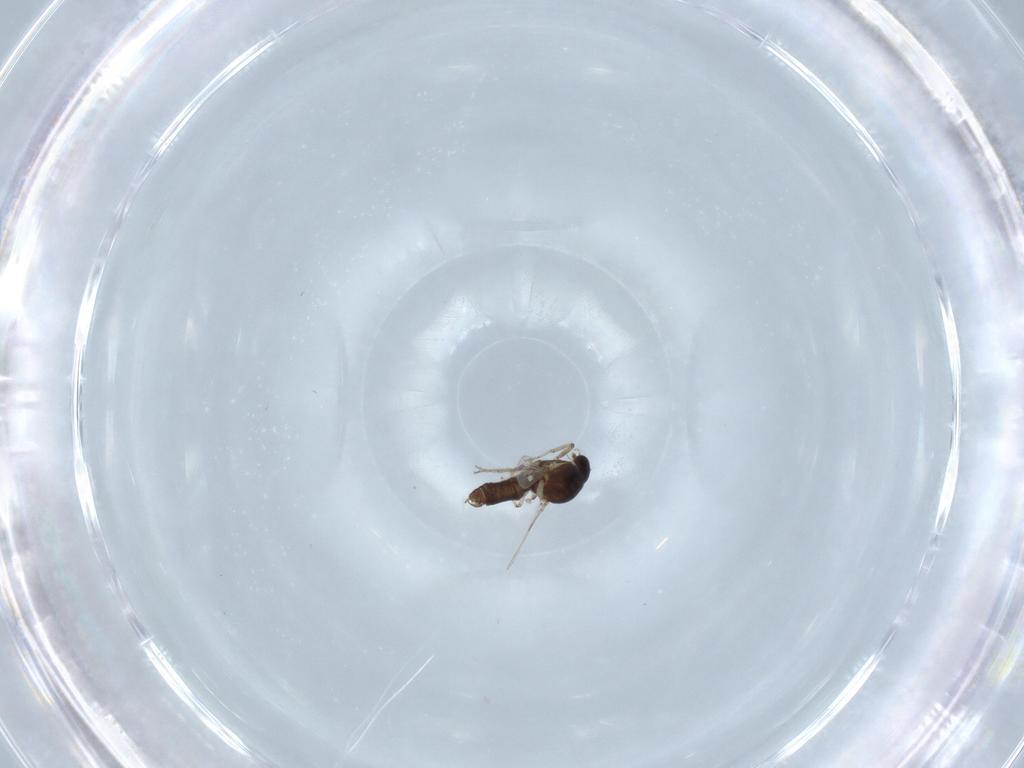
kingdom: Animalia
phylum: Arthropoda
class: Insecta
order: Diptera
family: Ceratopogonidae
